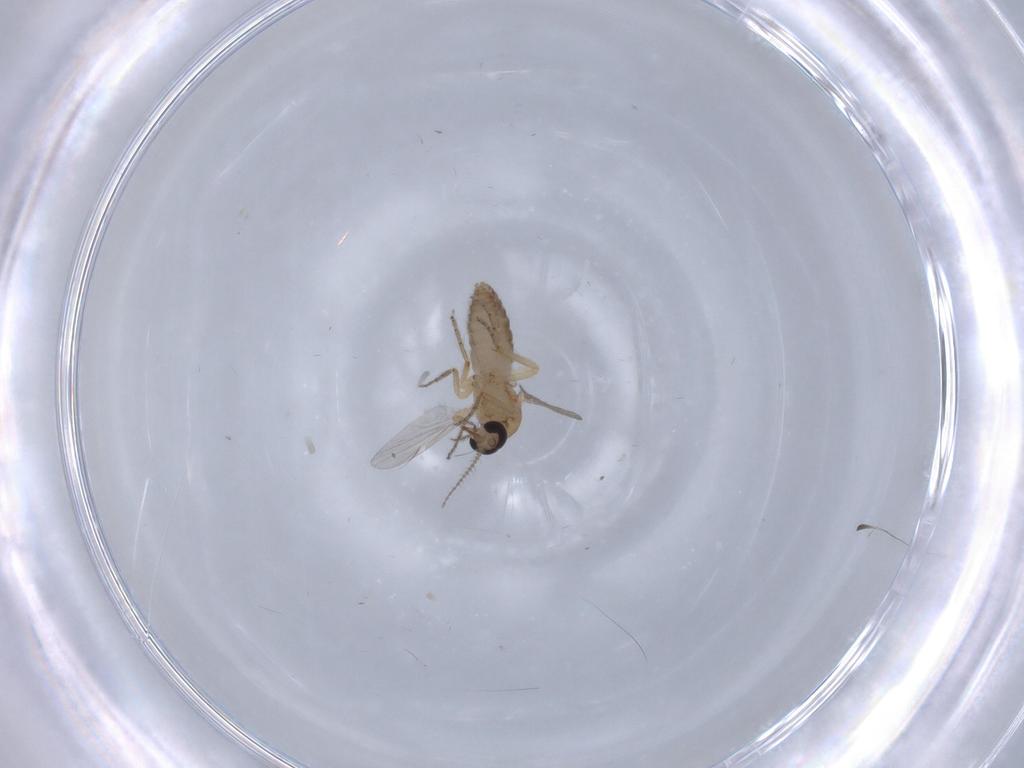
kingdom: Animalia
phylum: Arthropoda
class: Insecta
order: Diptera
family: Ceratopogonidae
